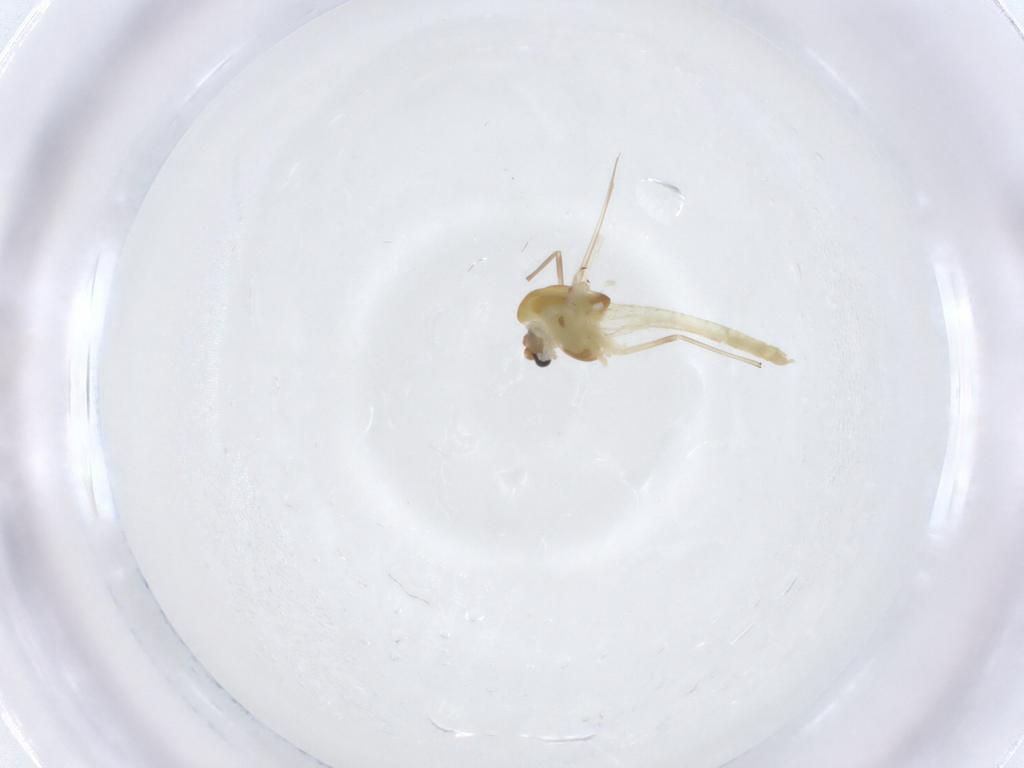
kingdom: Animalia
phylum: Arthropoda
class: Insecta
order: Diptera
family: Chironomidae
